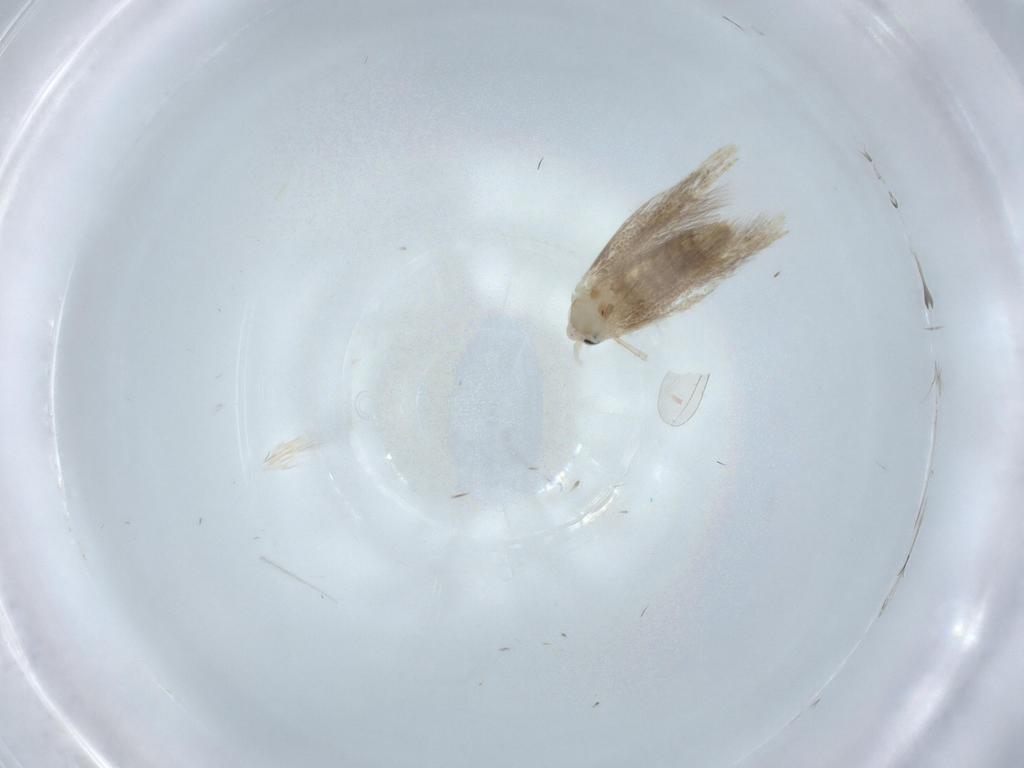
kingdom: Animalia
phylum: Arthropoda
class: Insecta
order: Lepidoptera
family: Bucculatricidae
